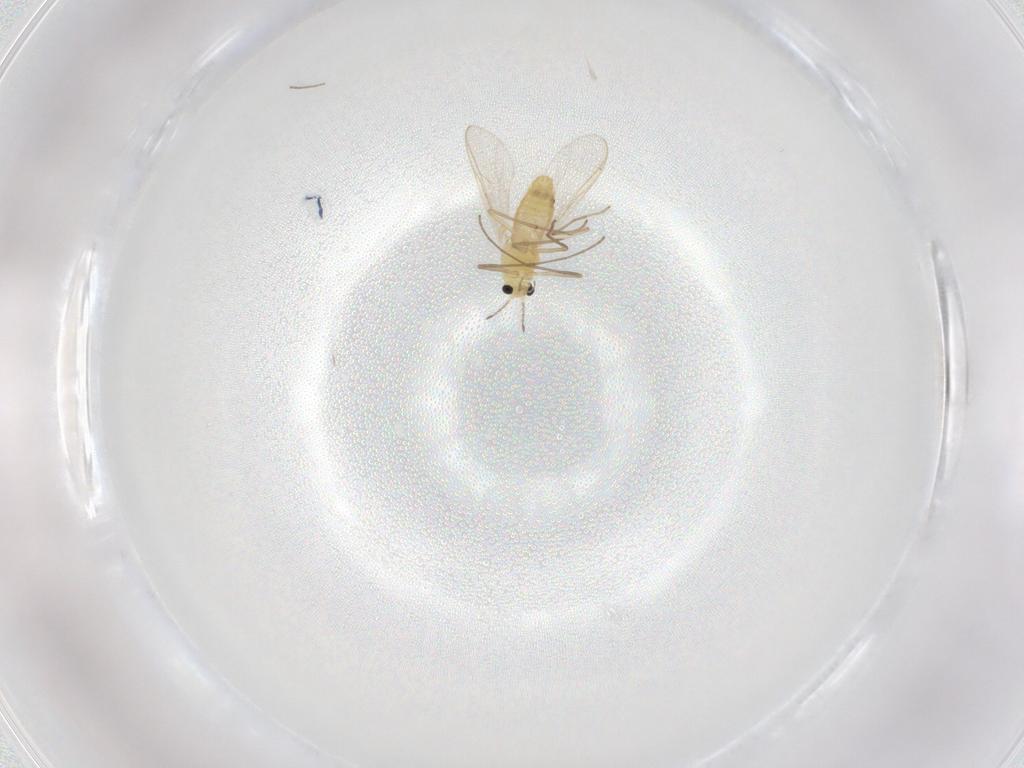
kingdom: Animalia
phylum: Arthropoda
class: Insecta
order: Diptera
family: Chironomidae
